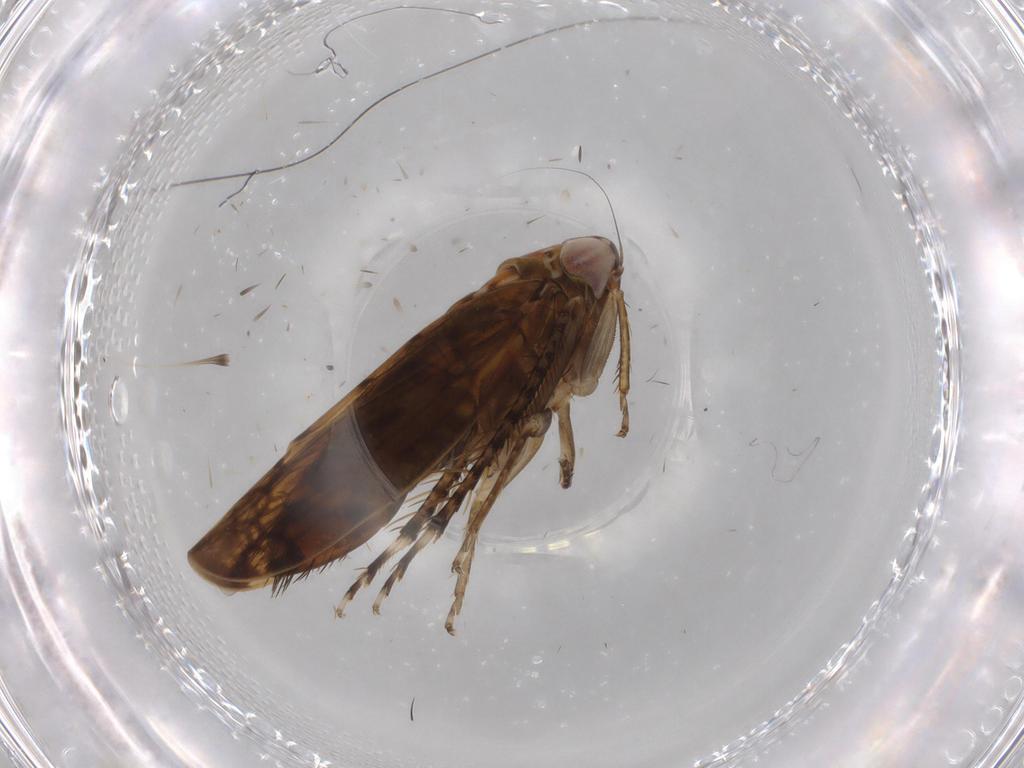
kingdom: Animalia
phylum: Arthropoda
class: Insecta
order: Hemiptera
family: Cicadellidae
